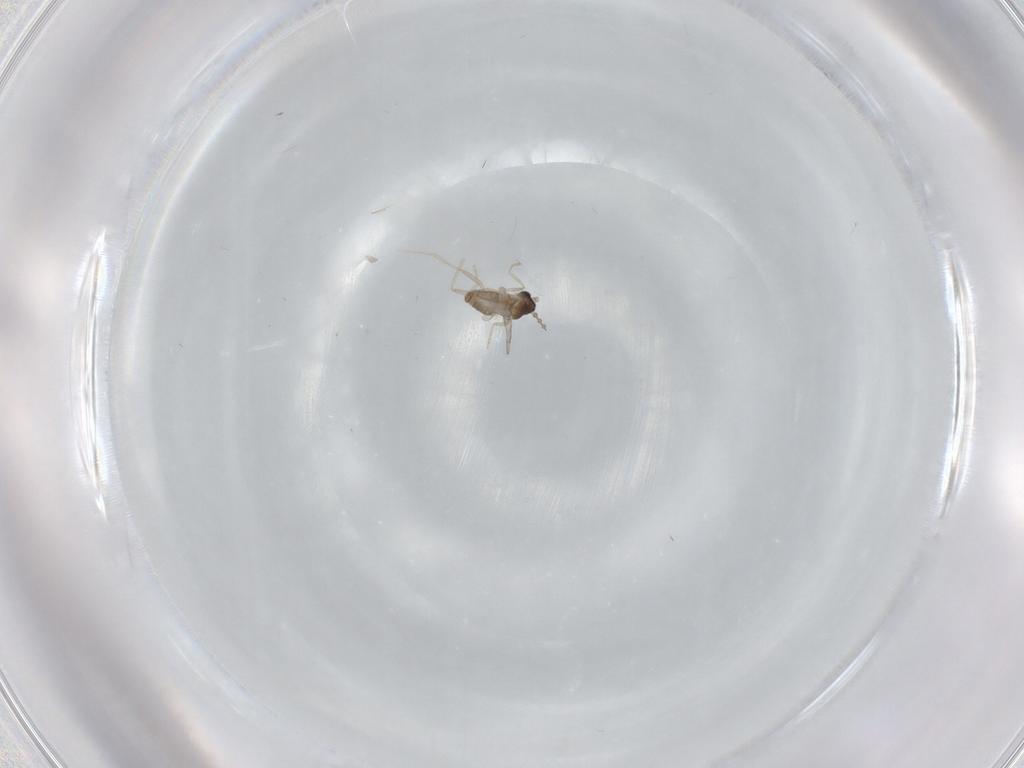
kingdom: Animalia
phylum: Arthropoda
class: Insecta
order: Diptera
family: Cecidomyiidae
